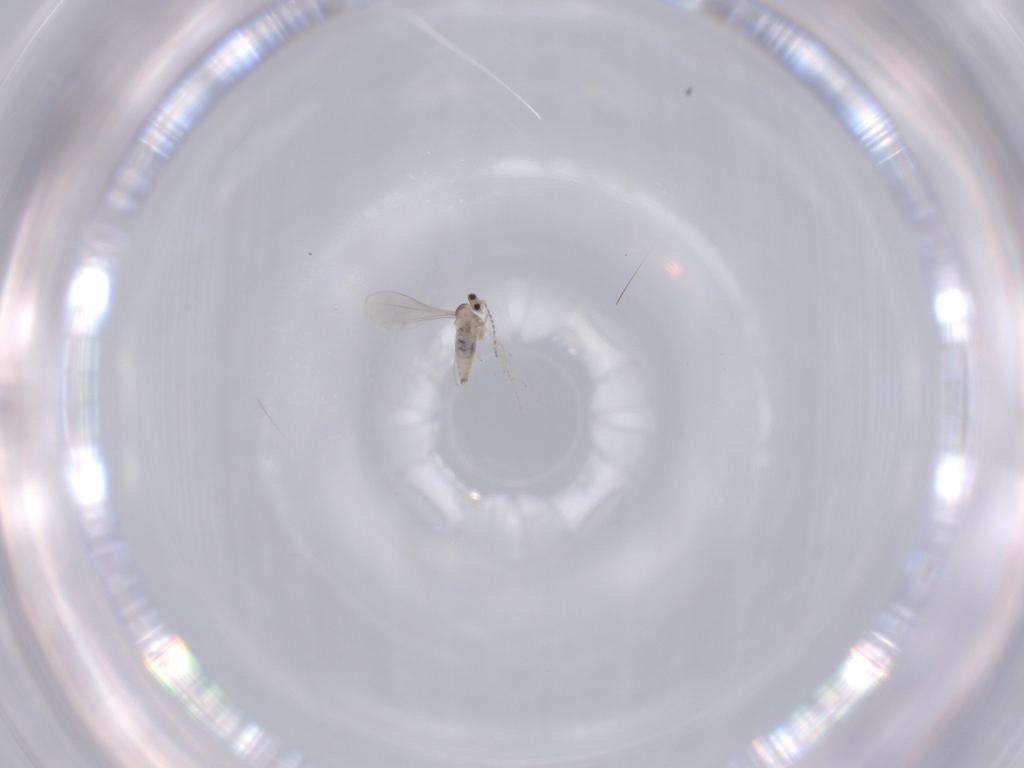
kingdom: Animalia
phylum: Arthropoda
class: Insecta
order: Diptera
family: Cecidomyiidae
